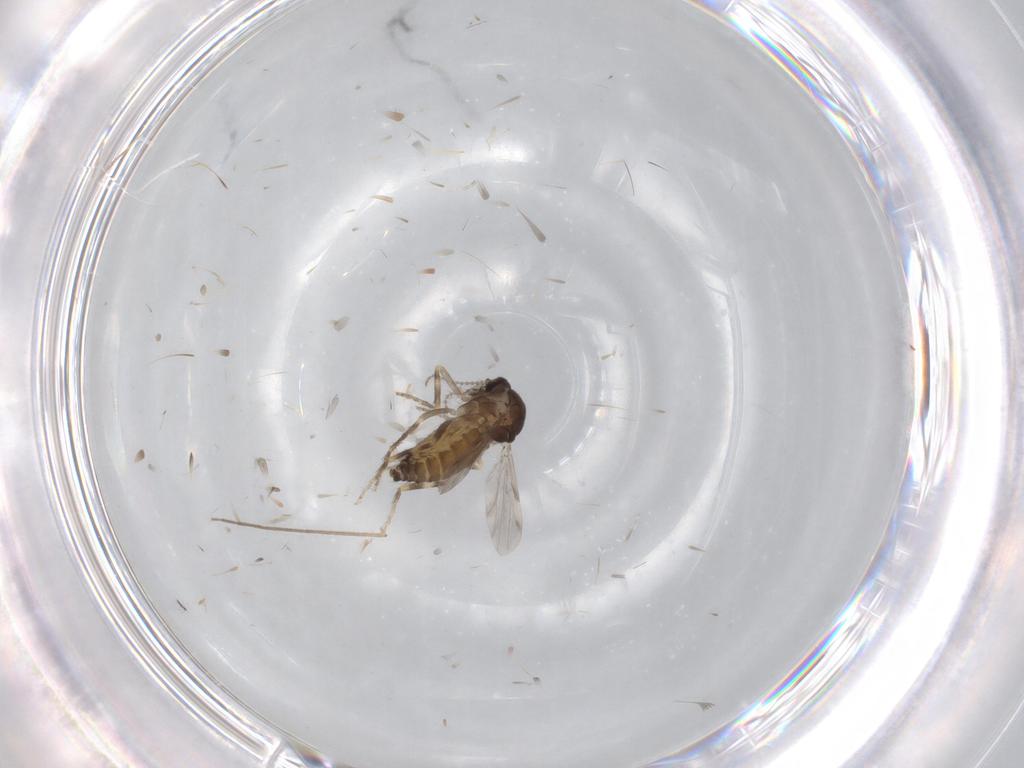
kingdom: Animalia
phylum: Arthropoda
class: Insecta
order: Diptera
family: Ceratopogonidae
